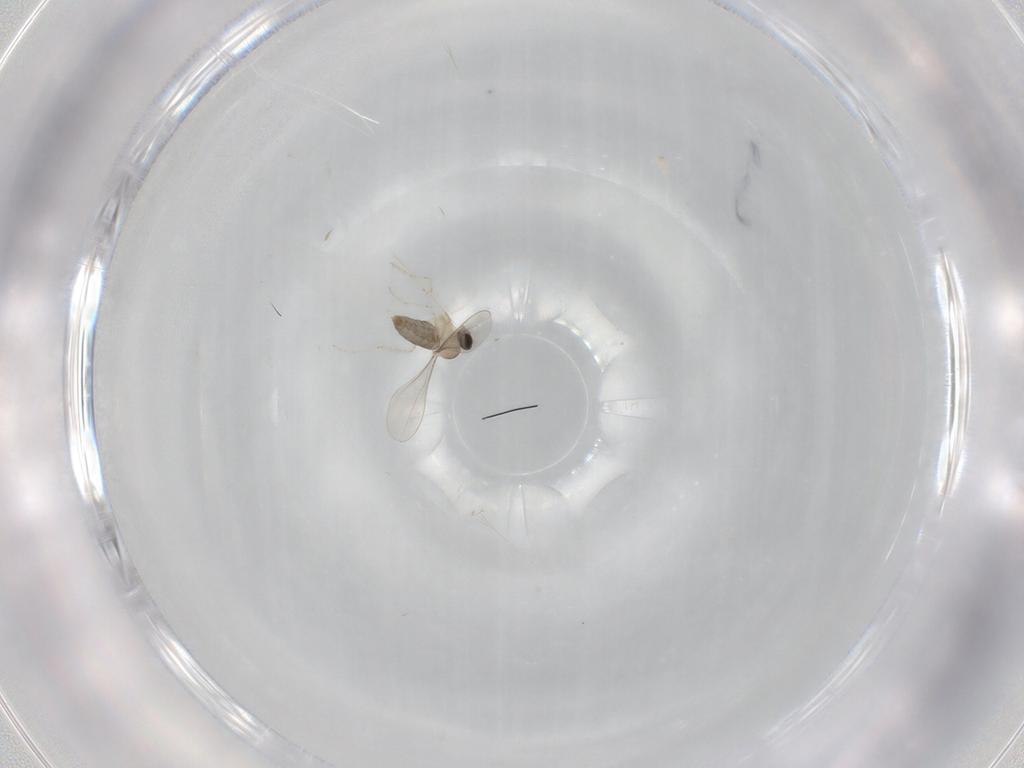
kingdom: Animalia
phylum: Arthropoda
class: Insecta
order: Diptera
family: Cecidomyiidae
